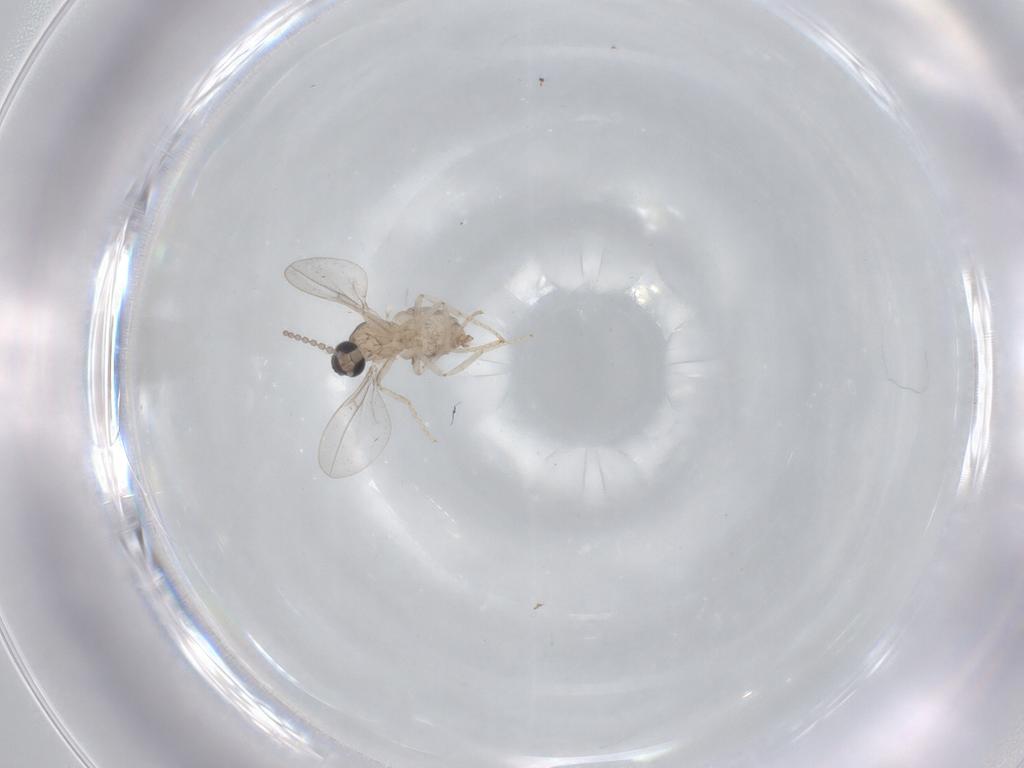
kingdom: Animalia
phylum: Arthropoda
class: Insecta
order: Diptera
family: Cecidomyiidae
